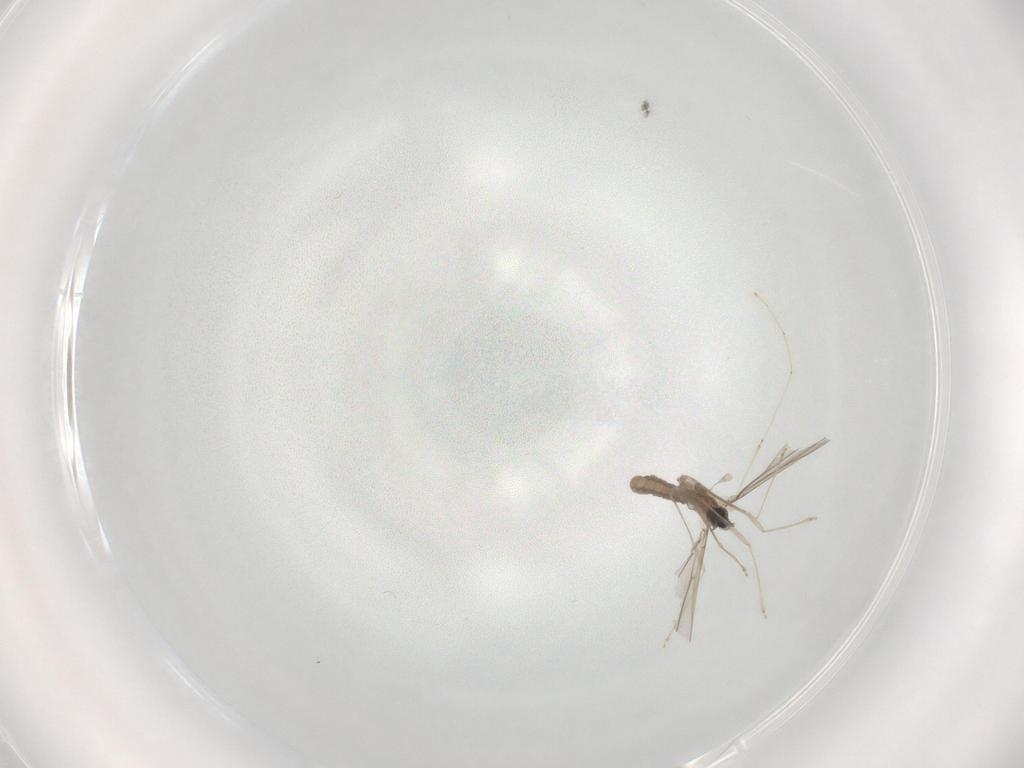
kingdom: Animalia
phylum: Arthropoda
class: Insecta
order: Diptera
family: Cecidomyiidae
